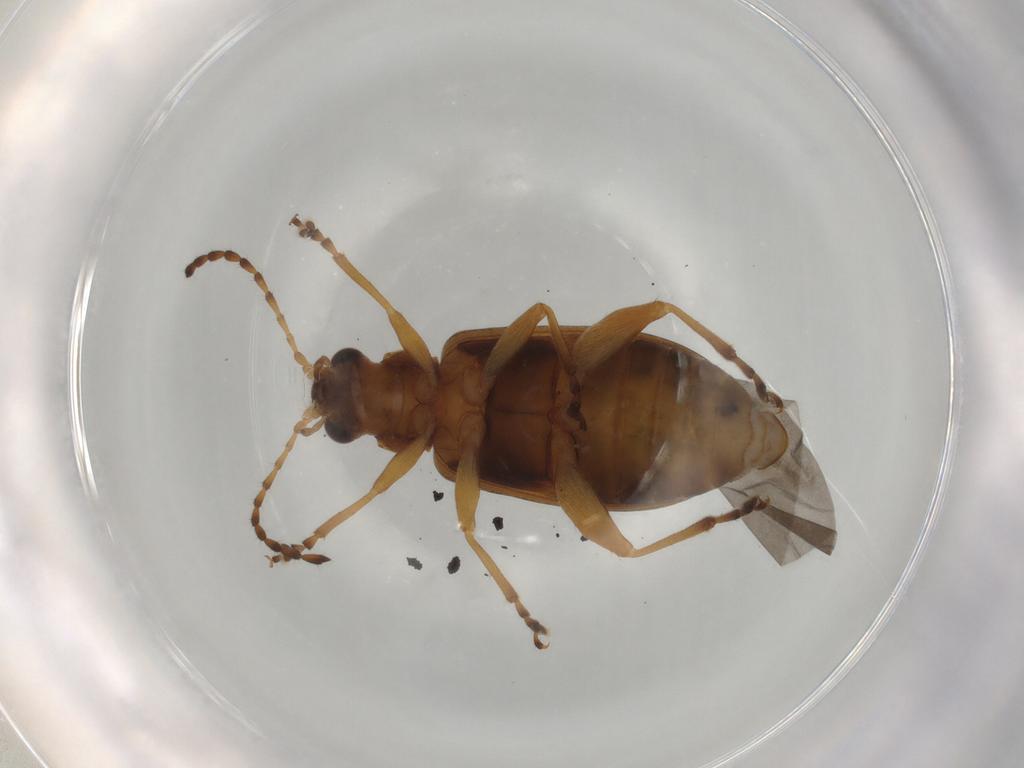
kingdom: Animalia
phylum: Arthropoda
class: Insecta
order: Coleoptera
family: Chrysomelidae
